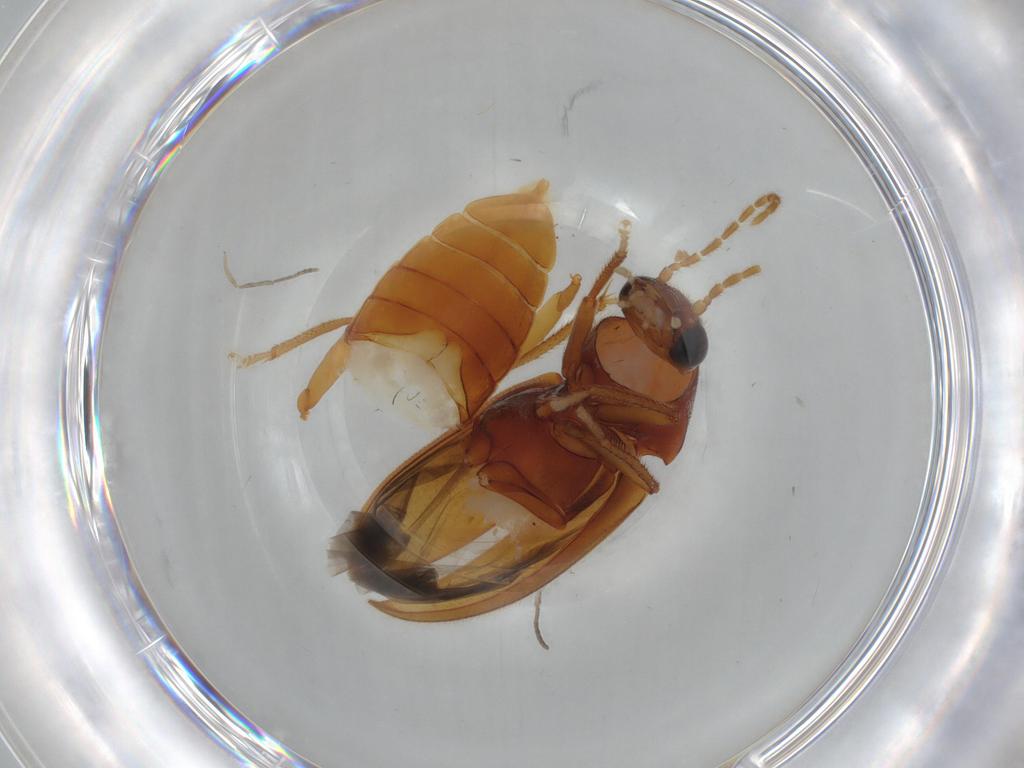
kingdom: Animalia
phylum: Arthropoda
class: Insecta
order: Coleoptera
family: Ptilodactylidae
